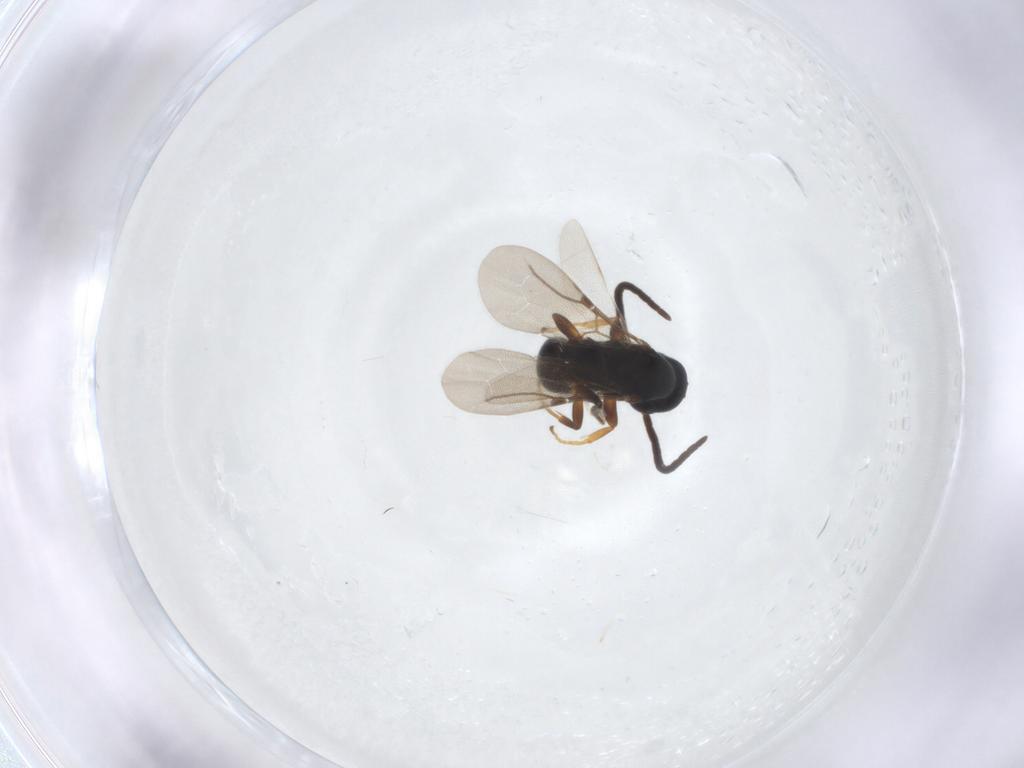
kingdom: Animalia
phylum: Arthropoda
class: Insecta
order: Hymenoptera
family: Bethylidae
